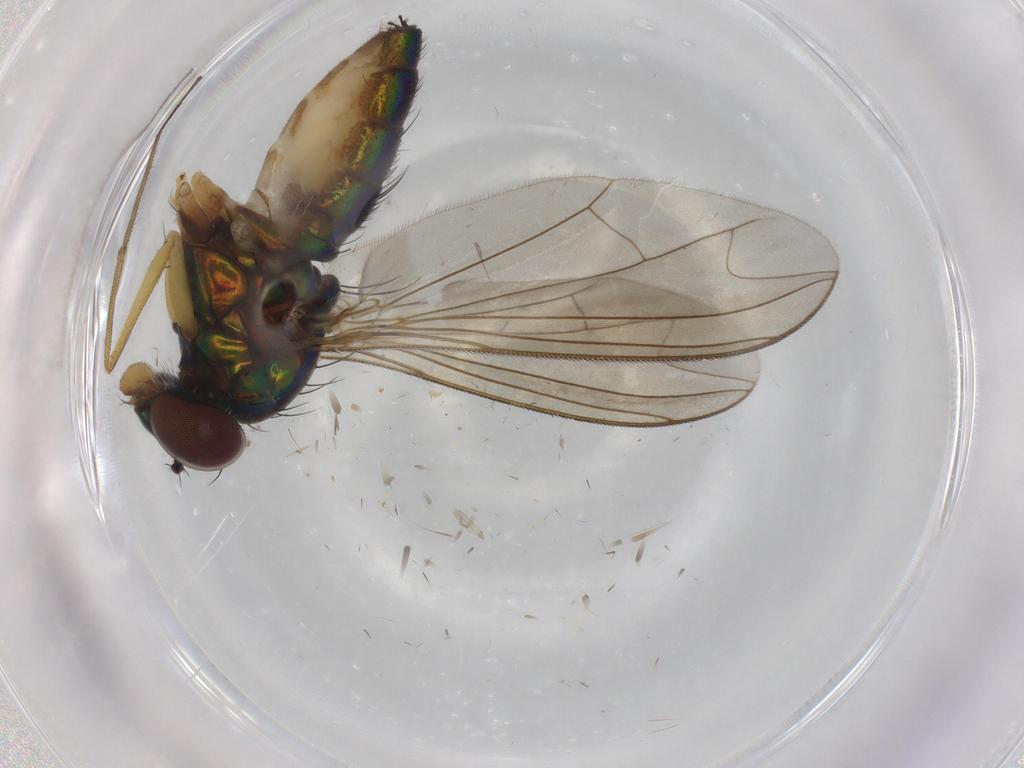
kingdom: Animalia
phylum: Arthropoda
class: Insecta
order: Diptera
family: Dolichopodidae
